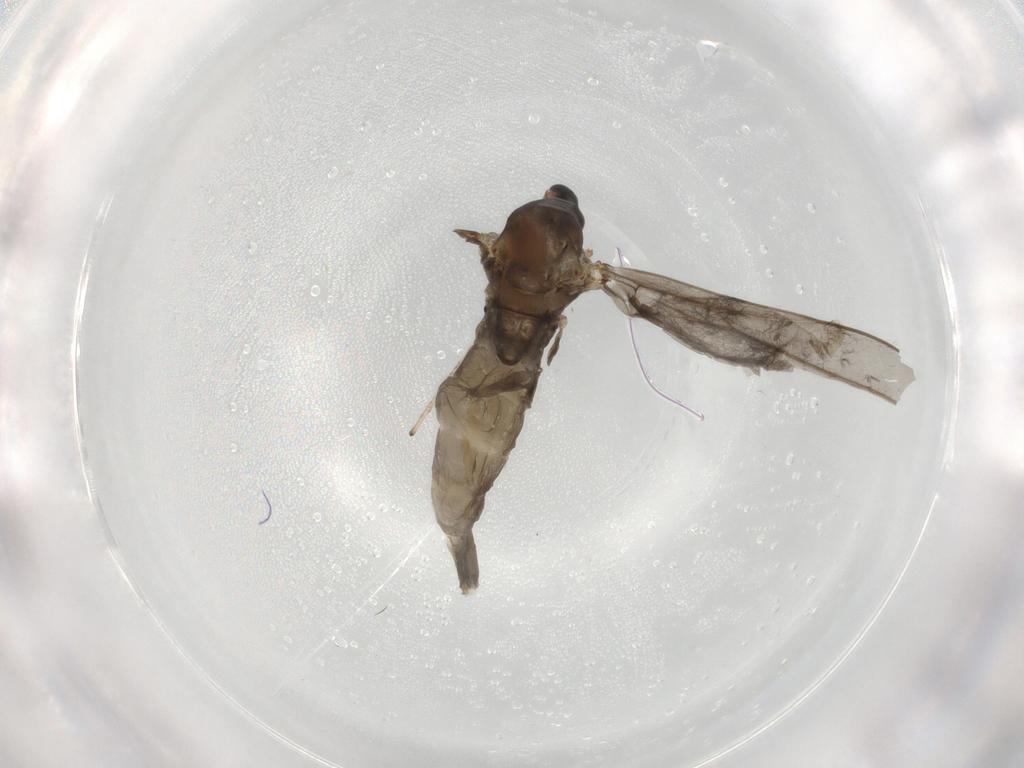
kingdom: Animalia
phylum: Arthropoda
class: Insecta
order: Diptera
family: Cecidomyiidae
